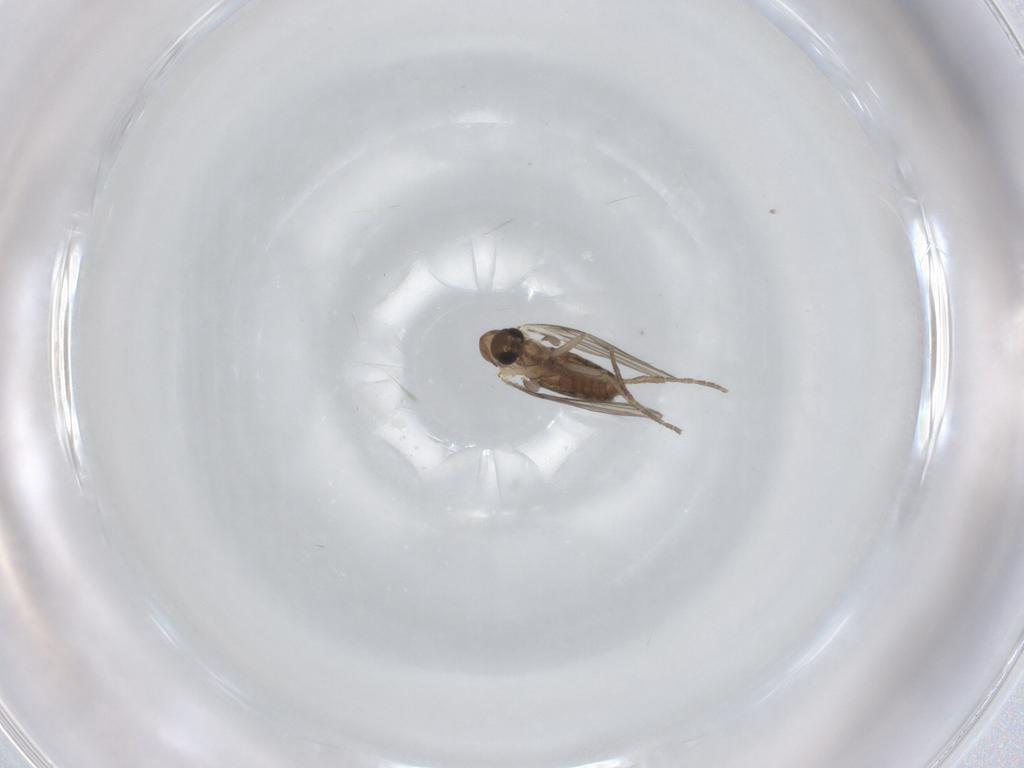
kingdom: Animalia
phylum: Arthropoda
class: Insecta
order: Diptera
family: Psychodidae
